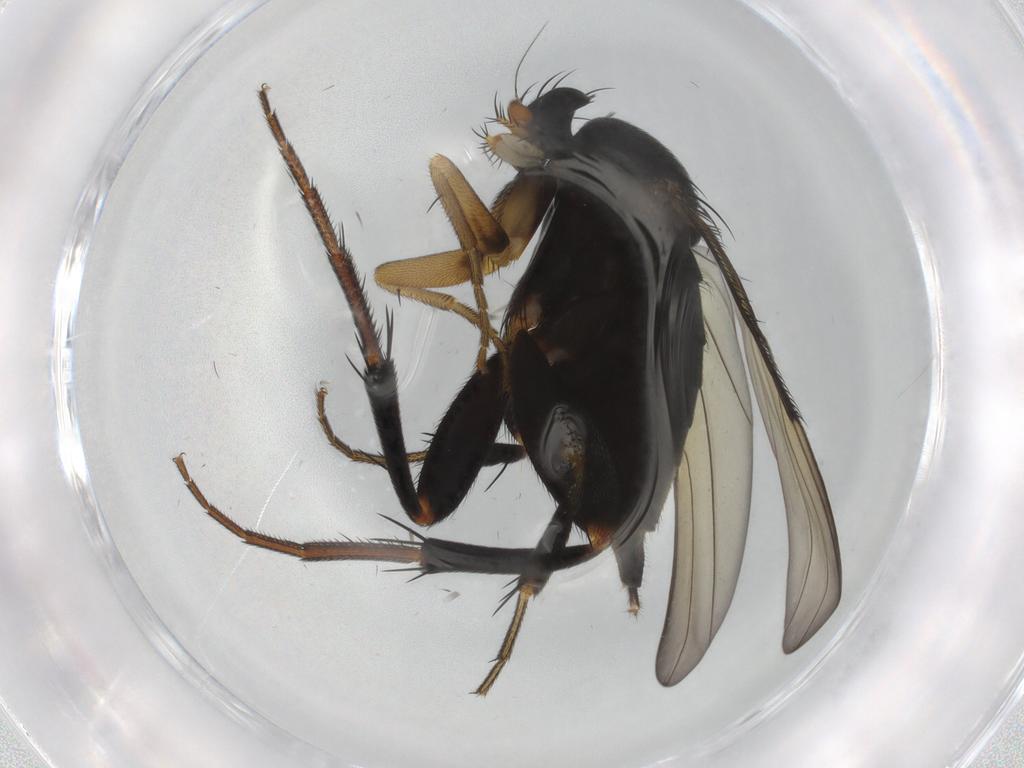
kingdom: Animalia
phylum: Arthropoda
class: Insecta
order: Diptera
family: Phoridae
